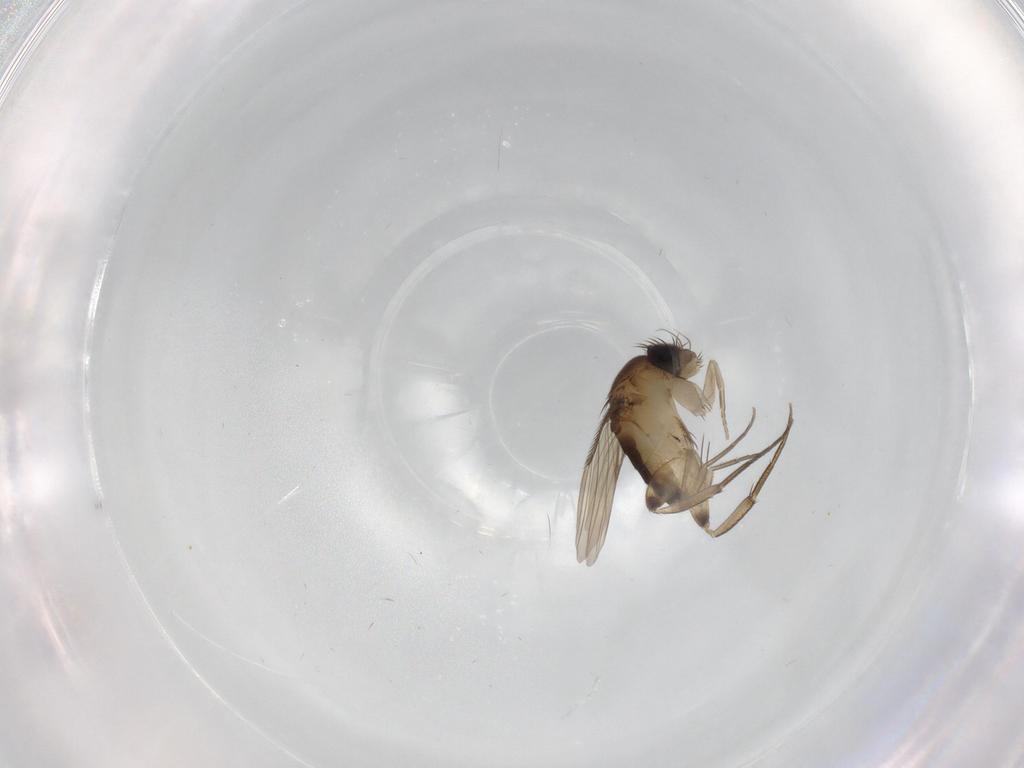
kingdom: Animalia
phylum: Arthropoda
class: Insecta
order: Diptera
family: Phoridae
